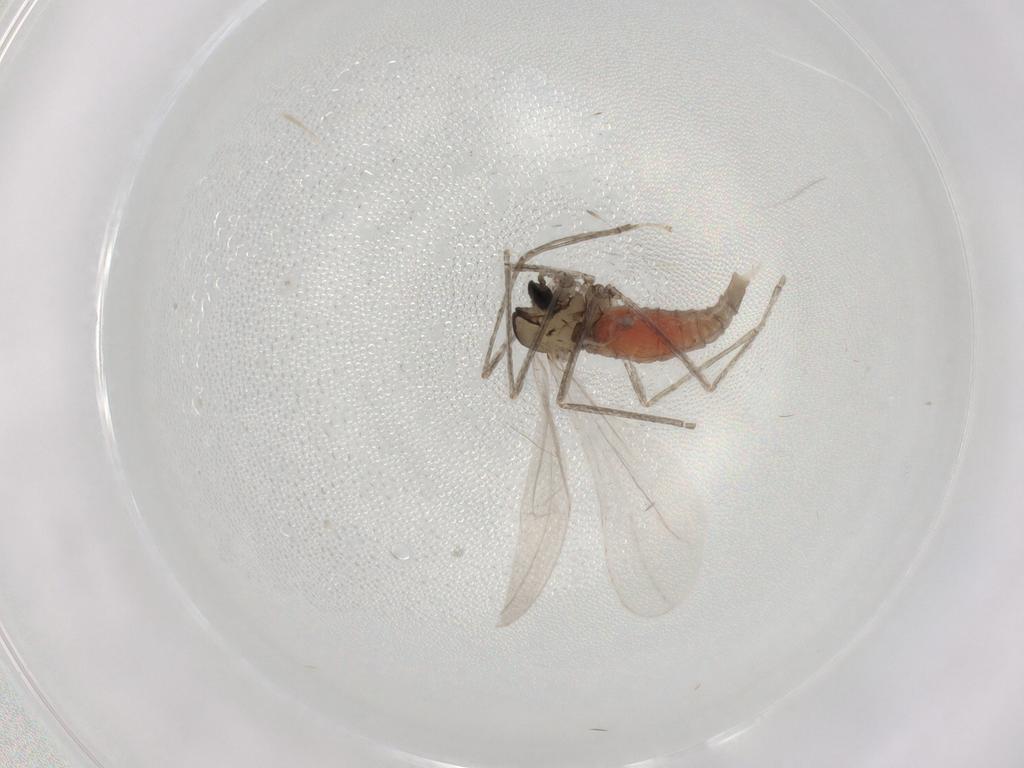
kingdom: Animalia
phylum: Arthropoda
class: Insecta
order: Diptera
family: Cecidomyiidae
